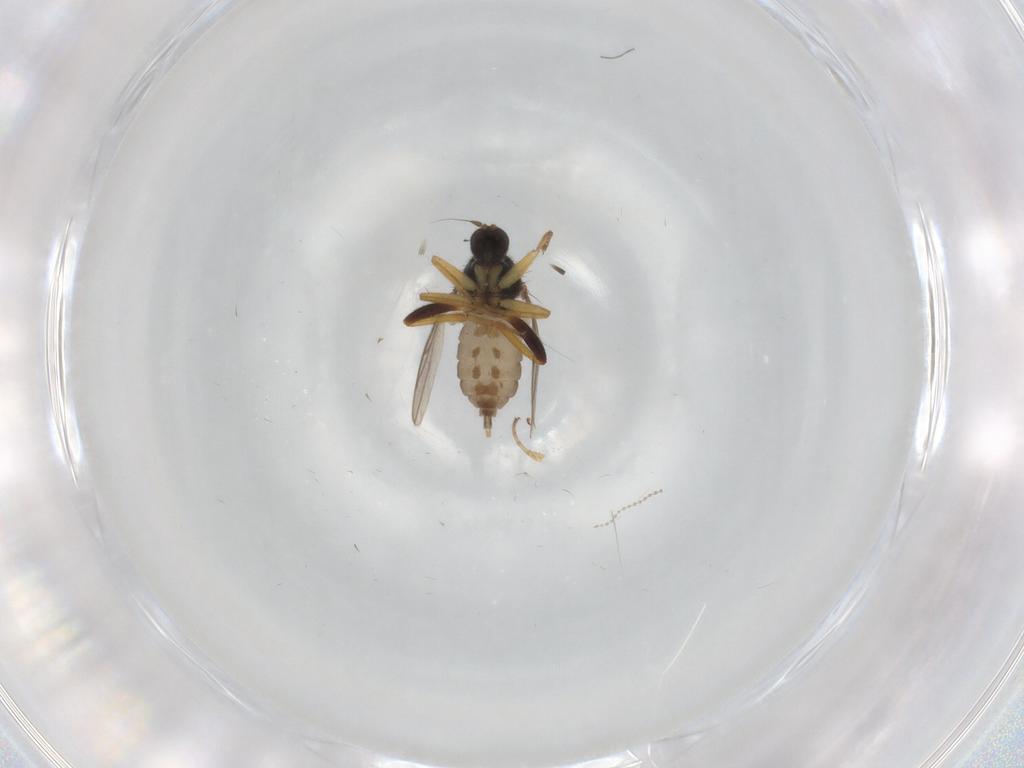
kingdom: Animalia
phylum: Arthropoda
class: Insecta
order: Diptera
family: Hybotidae
